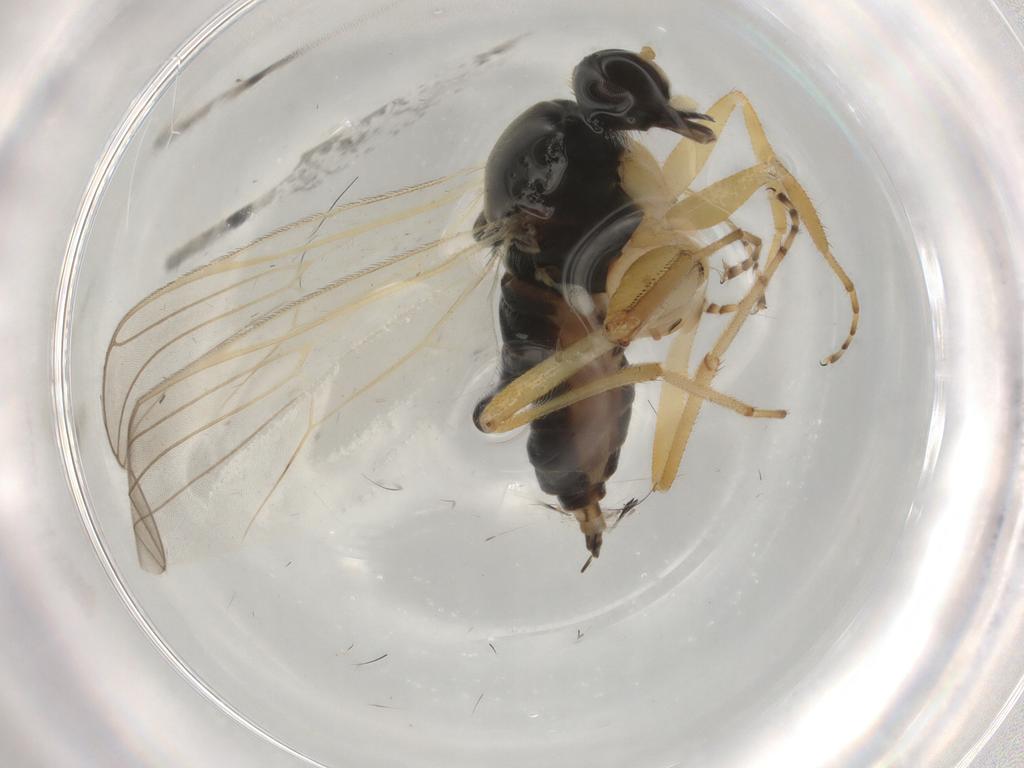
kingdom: Animalia
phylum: Arthropoda
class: Insecta
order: Diptera
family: Hybotidae
